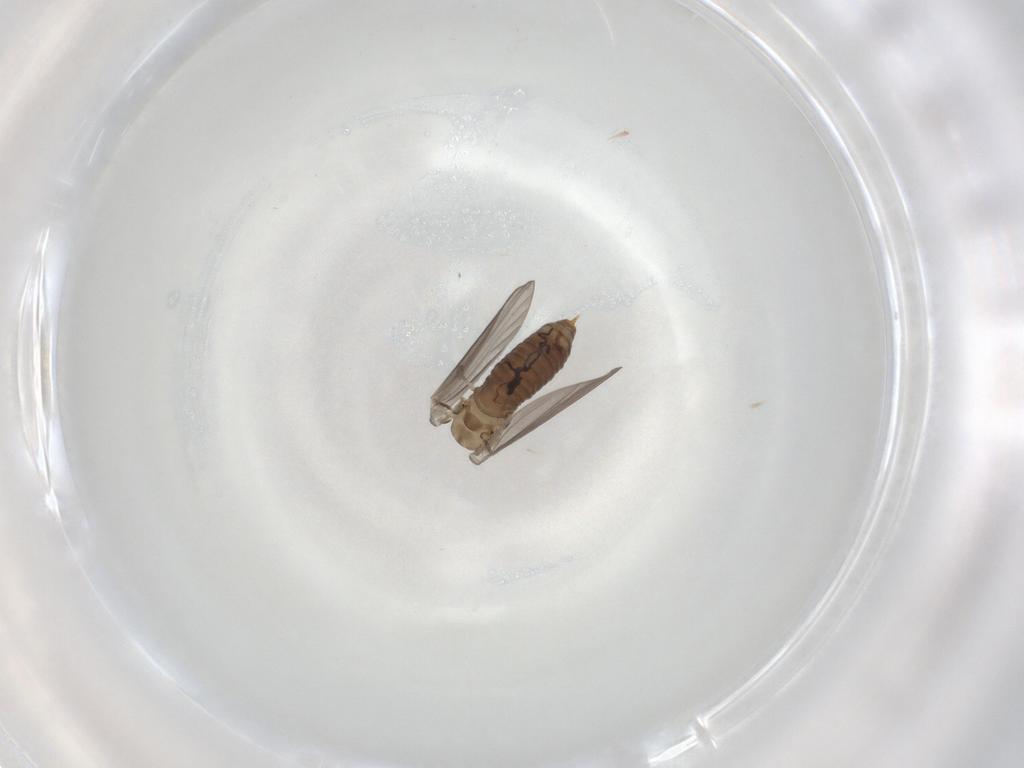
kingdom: Animalia
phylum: Arthropoda
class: Insecta
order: Diptera
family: Psychodidae
